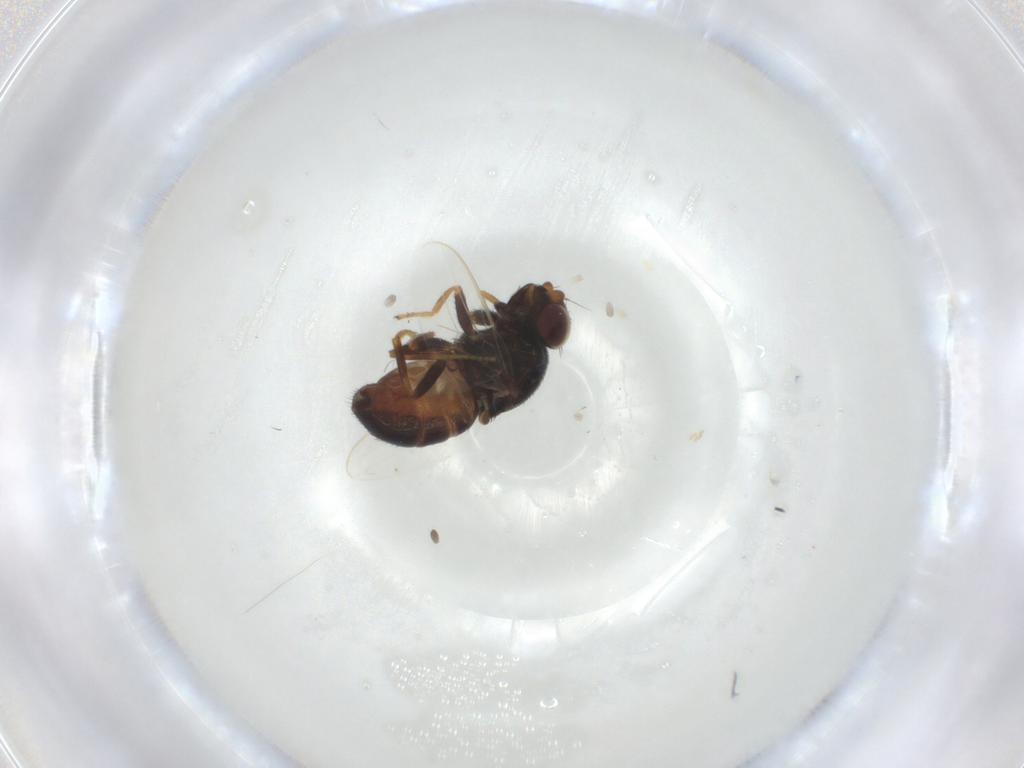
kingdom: Animalia
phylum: Arthropoda
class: Insecta
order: Diptera
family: Chloropidae
